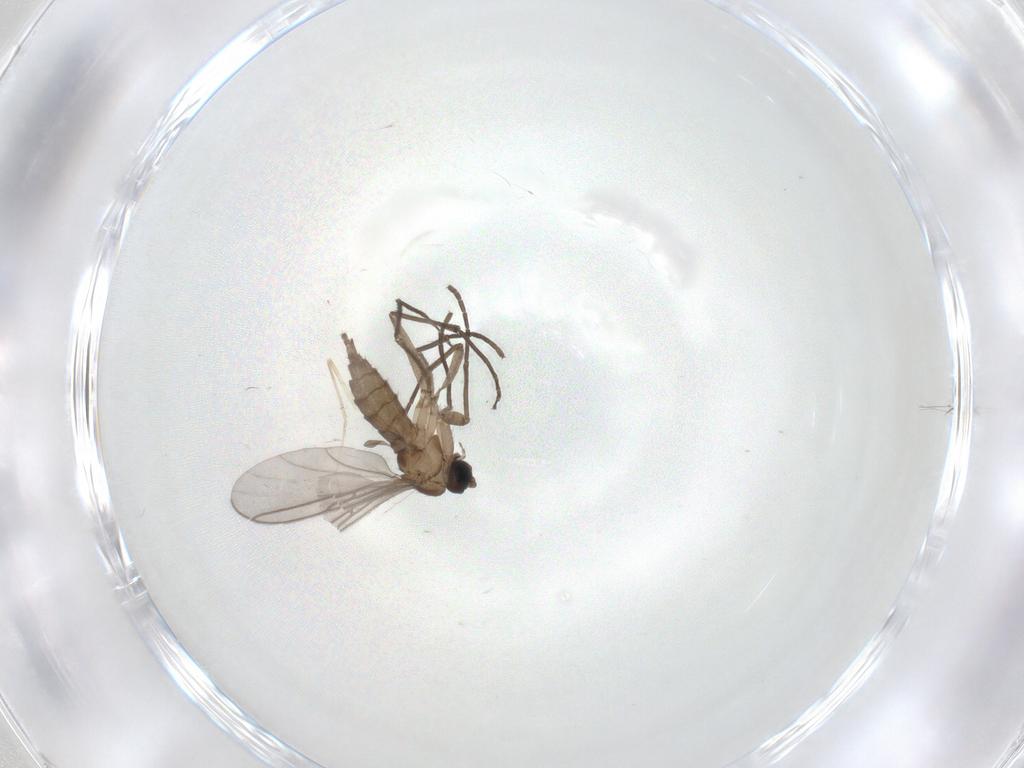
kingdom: Animalia
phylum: Arthropoda
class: Insecta
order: Diptera
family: Sciaridae
